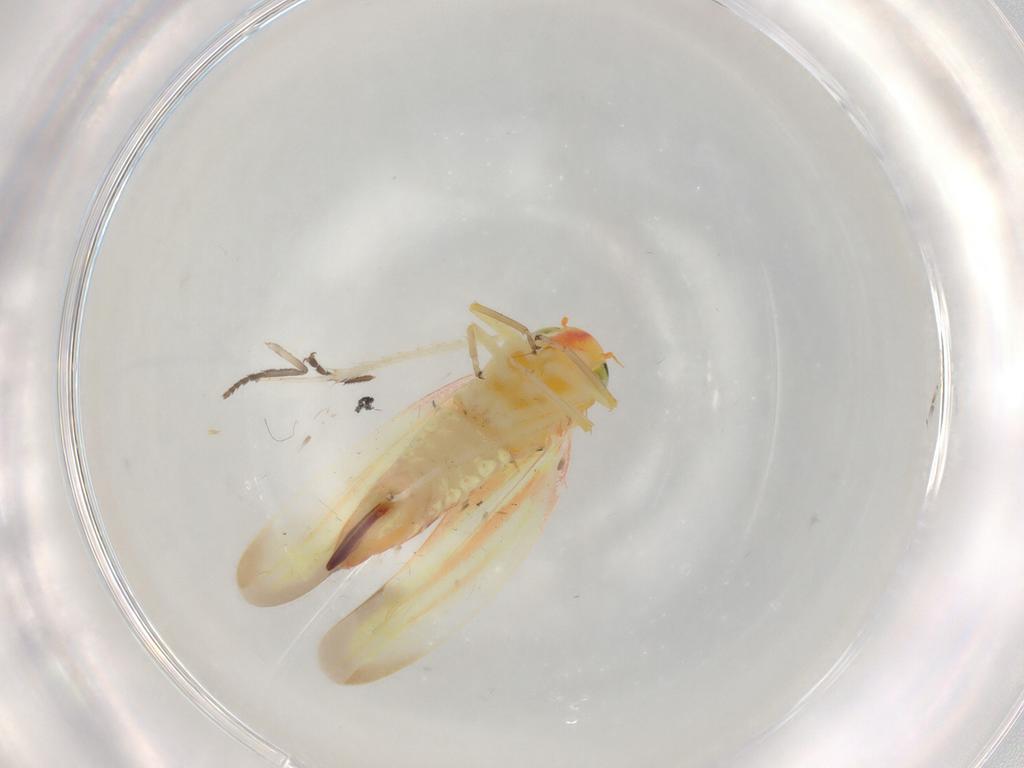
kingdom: Animalia
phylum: Arthropoda
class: Insecta
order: Hemiptera
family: Cicadellidae
